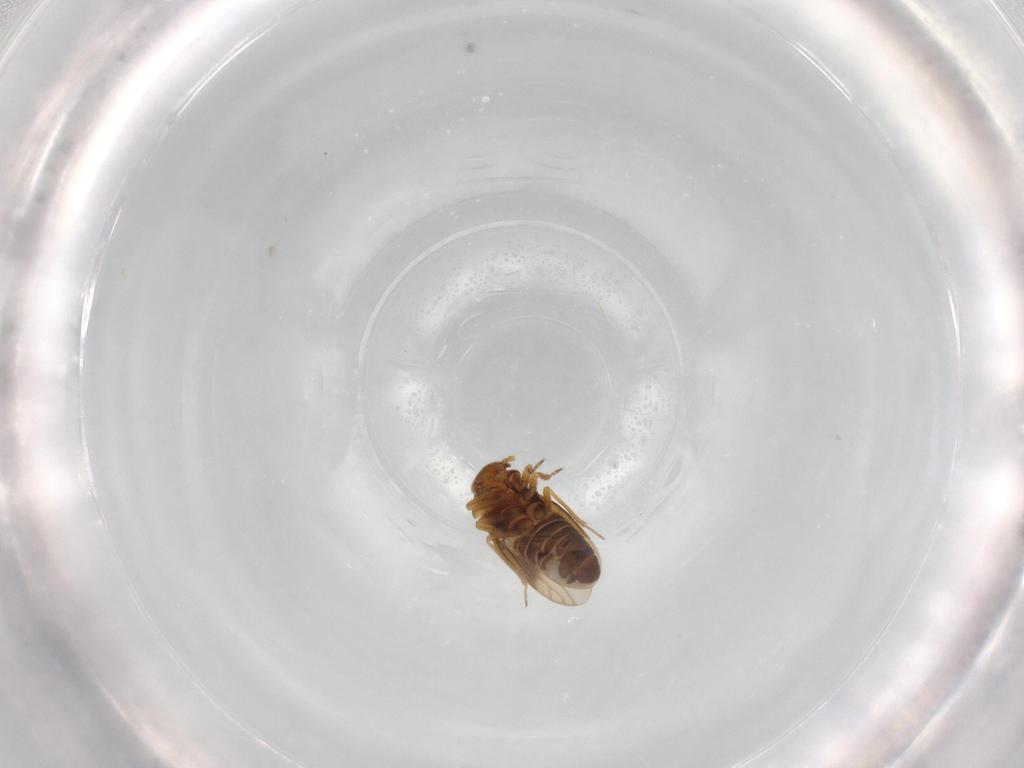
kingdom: Animalia
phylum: Arthropoda
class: Insecta
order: Hemiptera
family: Schizopteridae
